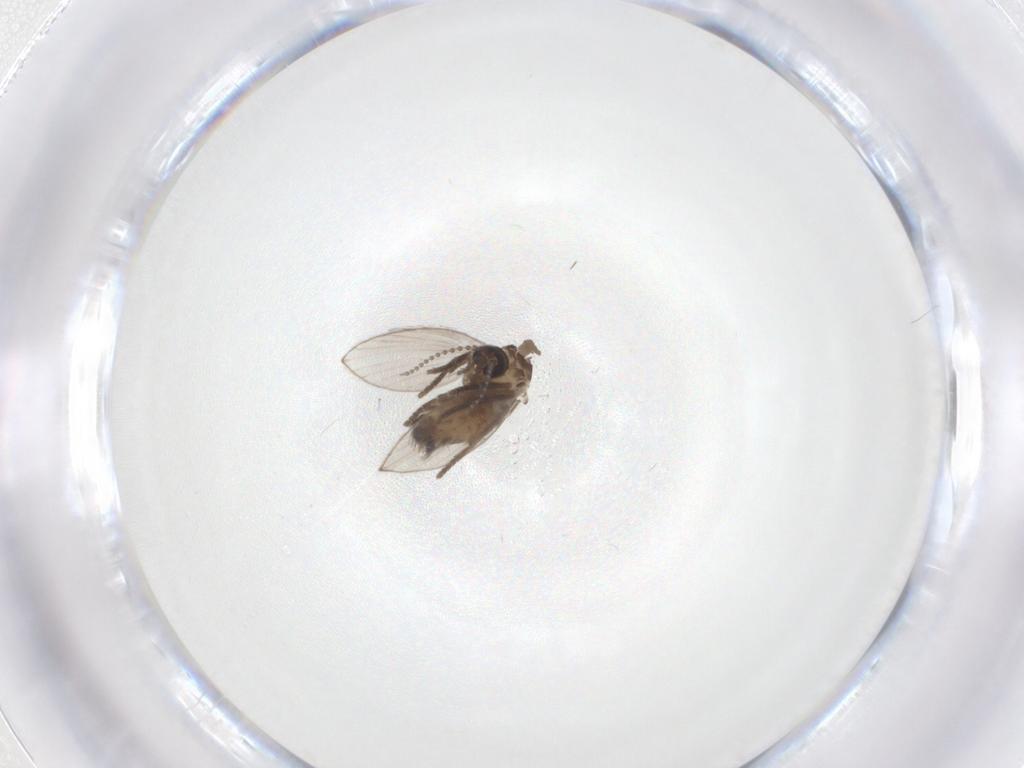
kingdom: Animalia
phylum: Arthropoda
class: Insecta
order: Diptera
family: Psychodidae
